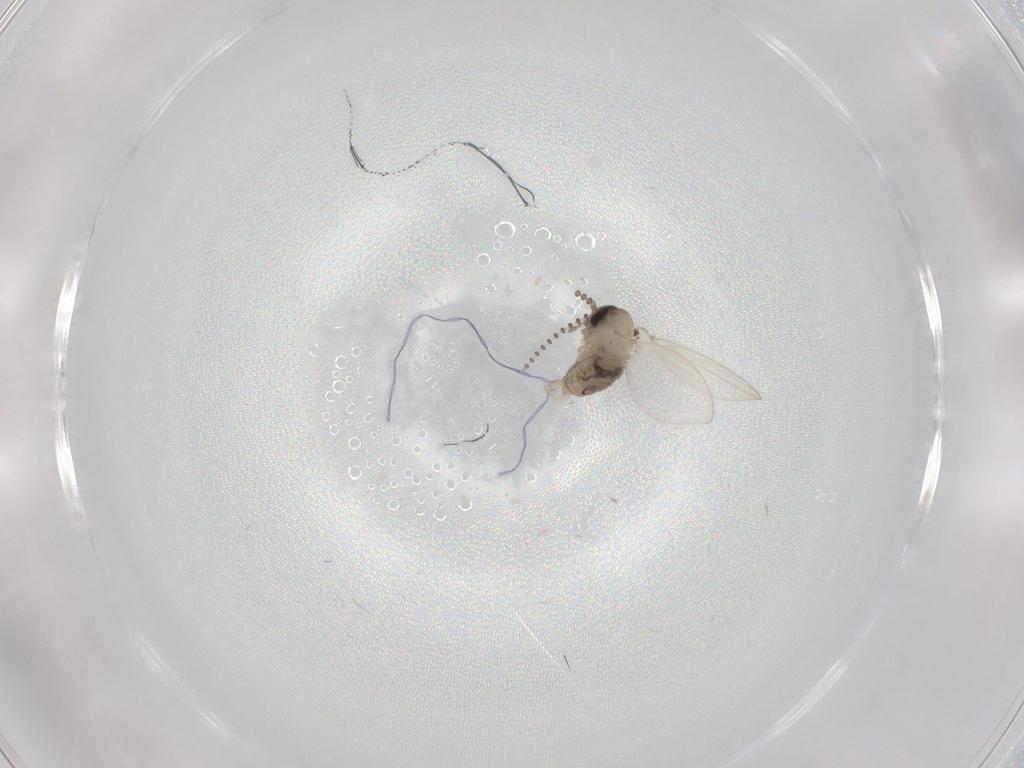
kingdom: Animalia
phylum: Arthropoda
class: Insecta
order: Diptera
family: Psychodidae
